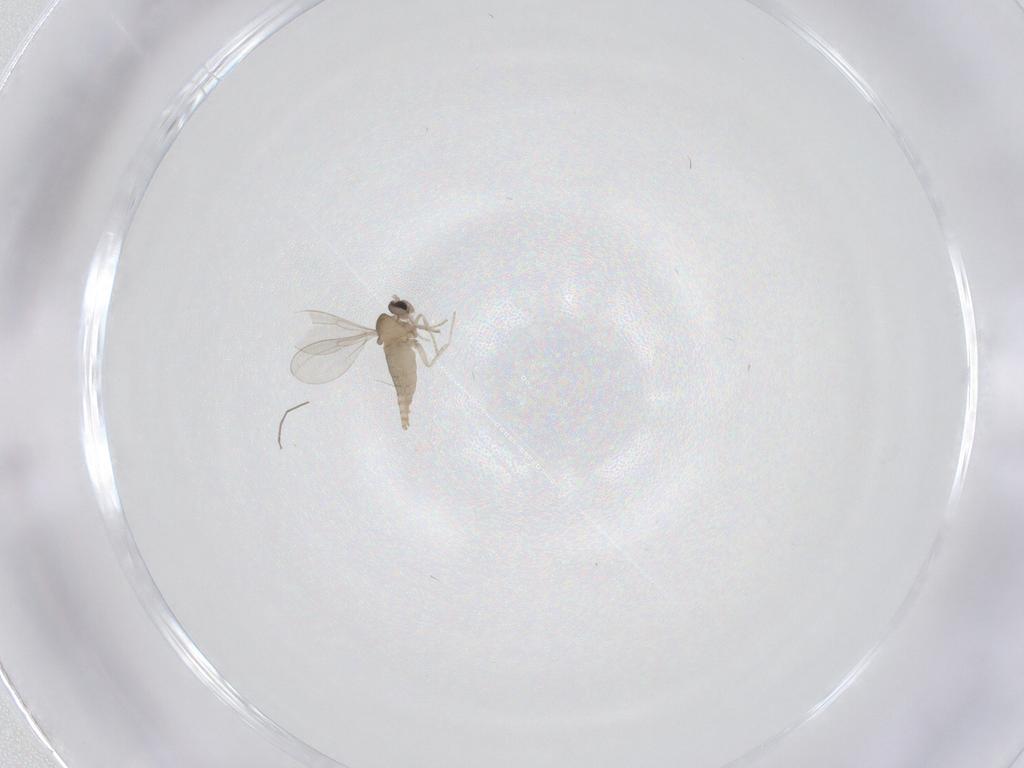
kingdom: Animalia
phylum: Arthropoda
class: Insecta
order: Diptera
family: Cecidomyiidae
